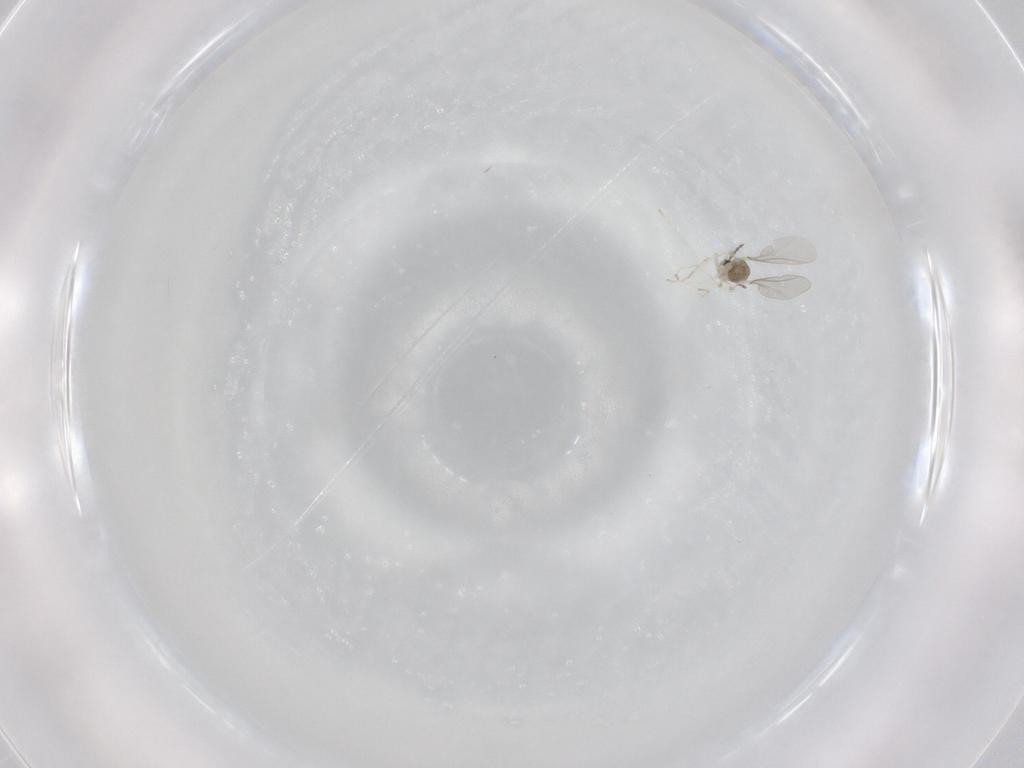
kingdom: Animalia
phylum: Arthropoda
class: Insecta
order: Diptera
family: Cecidomyiidae
